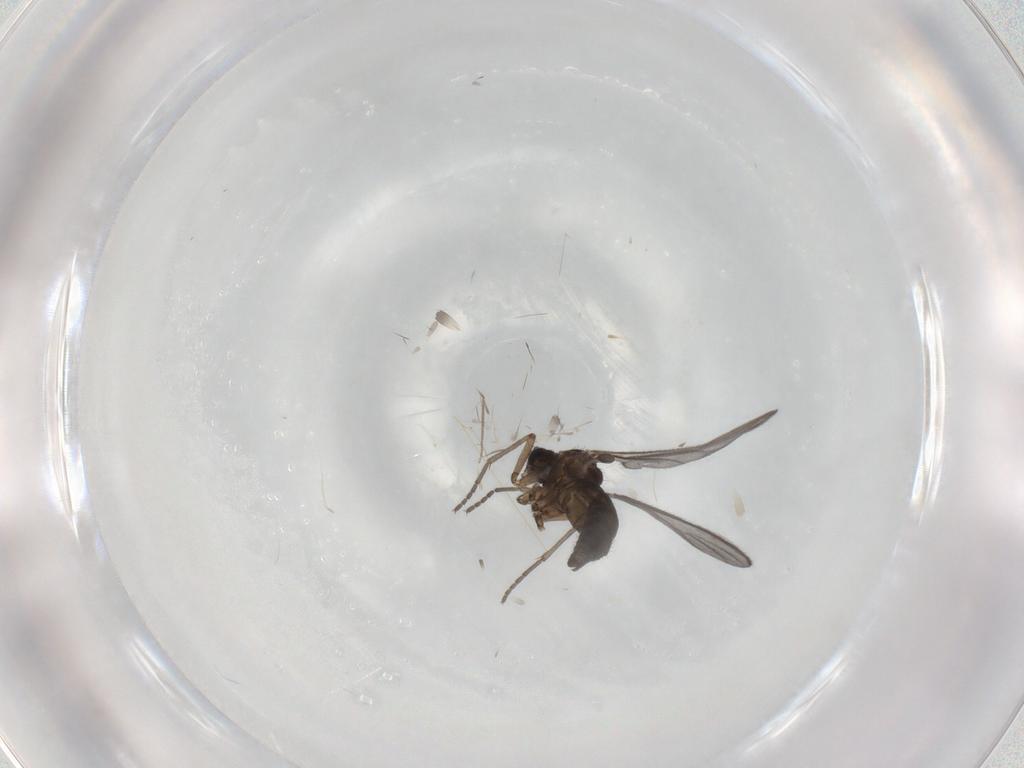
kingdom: Animalia
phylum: Arthropoda
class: Insecta
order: Diptera
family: Sciaridae
